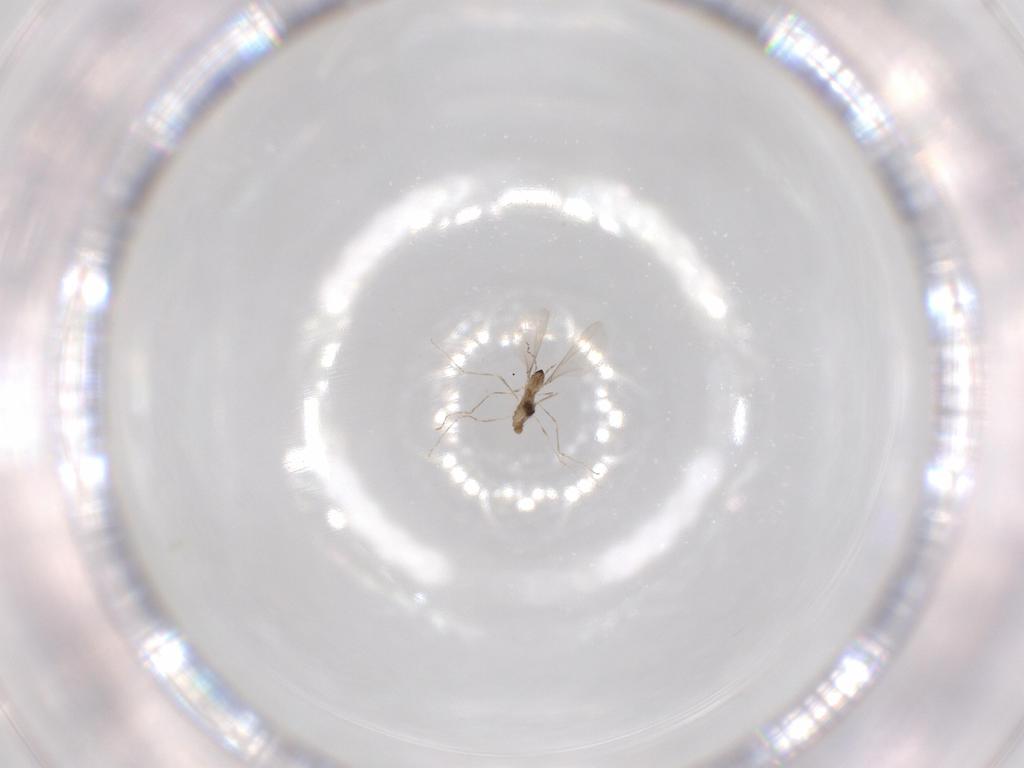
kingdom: Animalia
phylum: Arthropoda
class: Insecta
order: Diptera
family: Cecidomyiidae
